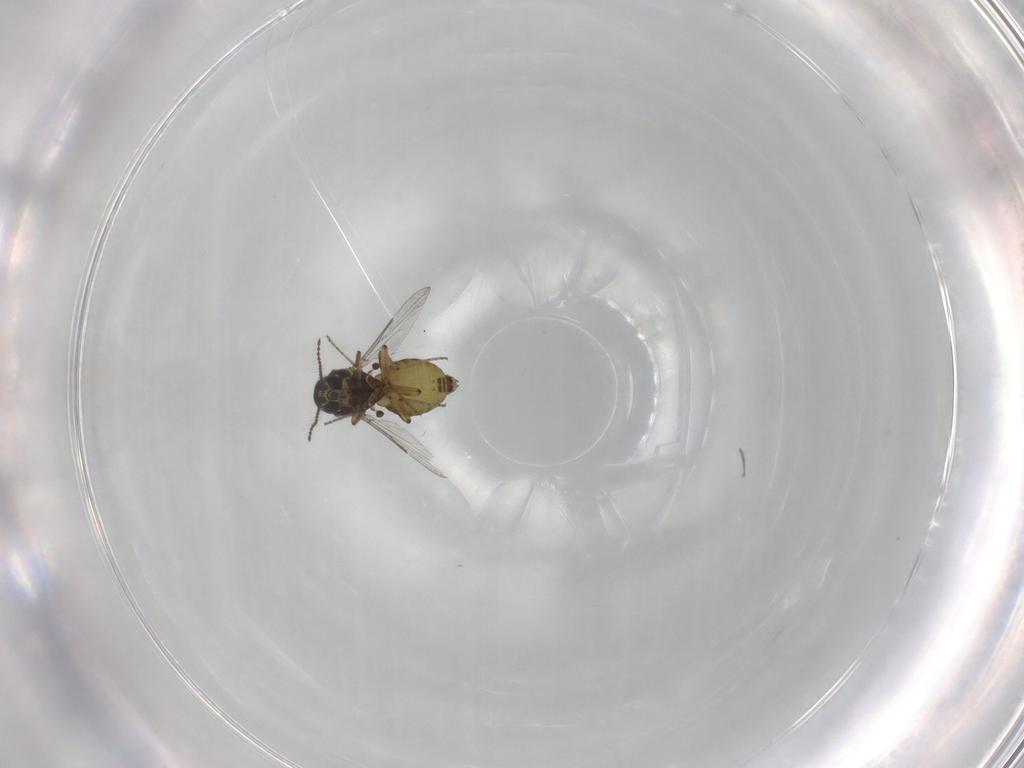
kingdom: Animalia
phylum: Arthropoda
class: Insecta
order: Diptera
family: Ceratopogonidae
